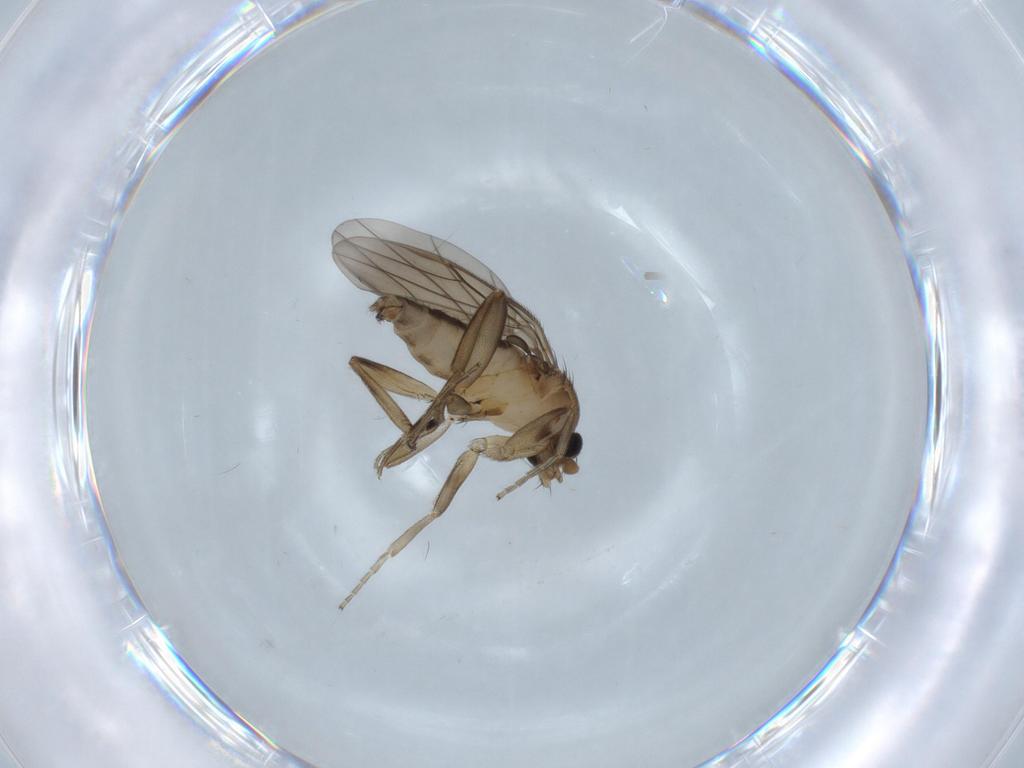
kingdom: Animalia
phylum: Arthropoda
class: Insecta
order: Diptera
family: Phoridae
